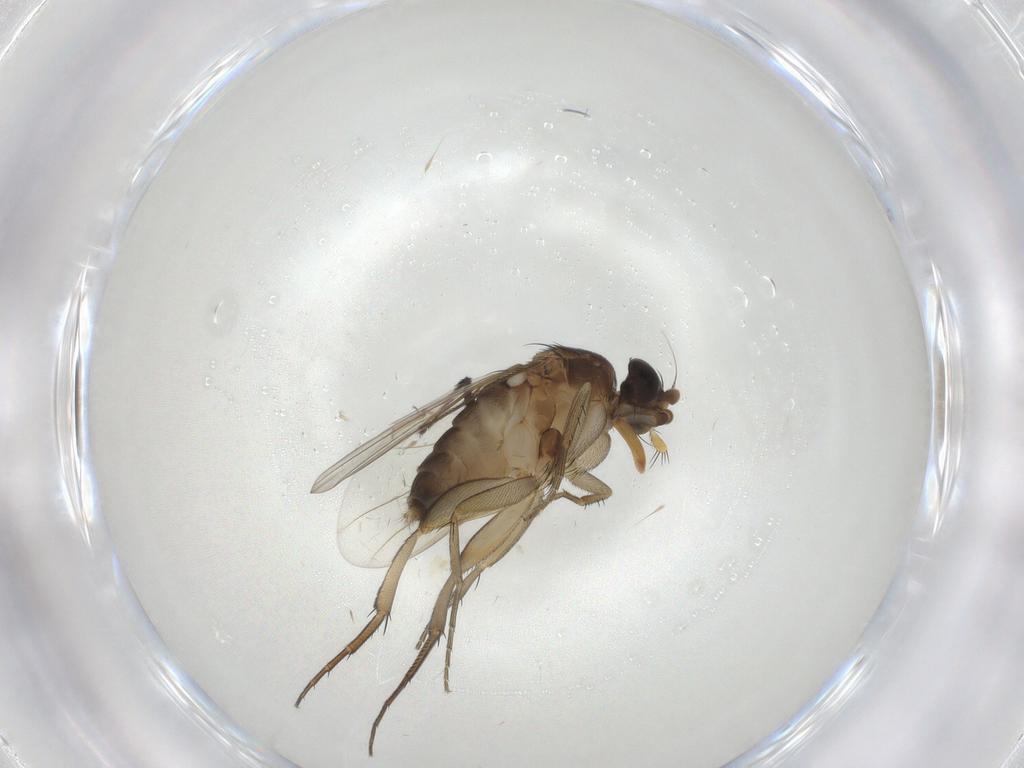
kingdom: Animalia
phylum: Arthropoda
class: Insecta
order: Diptera
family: Phoridae
